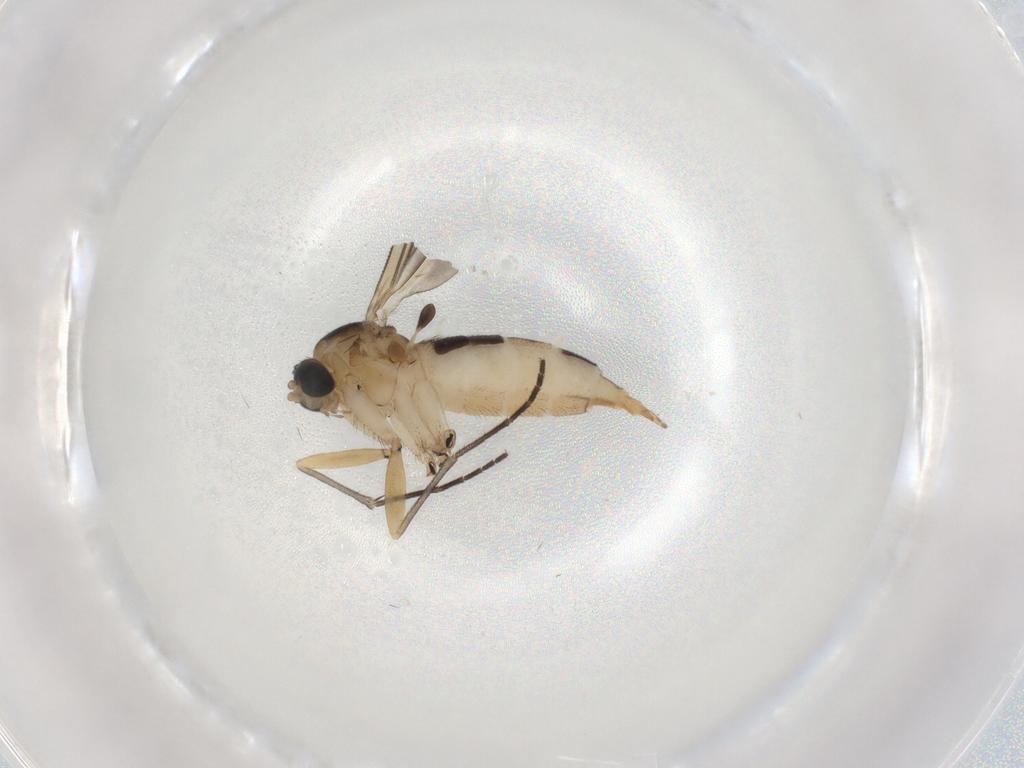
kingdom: Animalia
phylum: Arthropoda
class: Insecta
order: Diptera
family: Sciaridae
